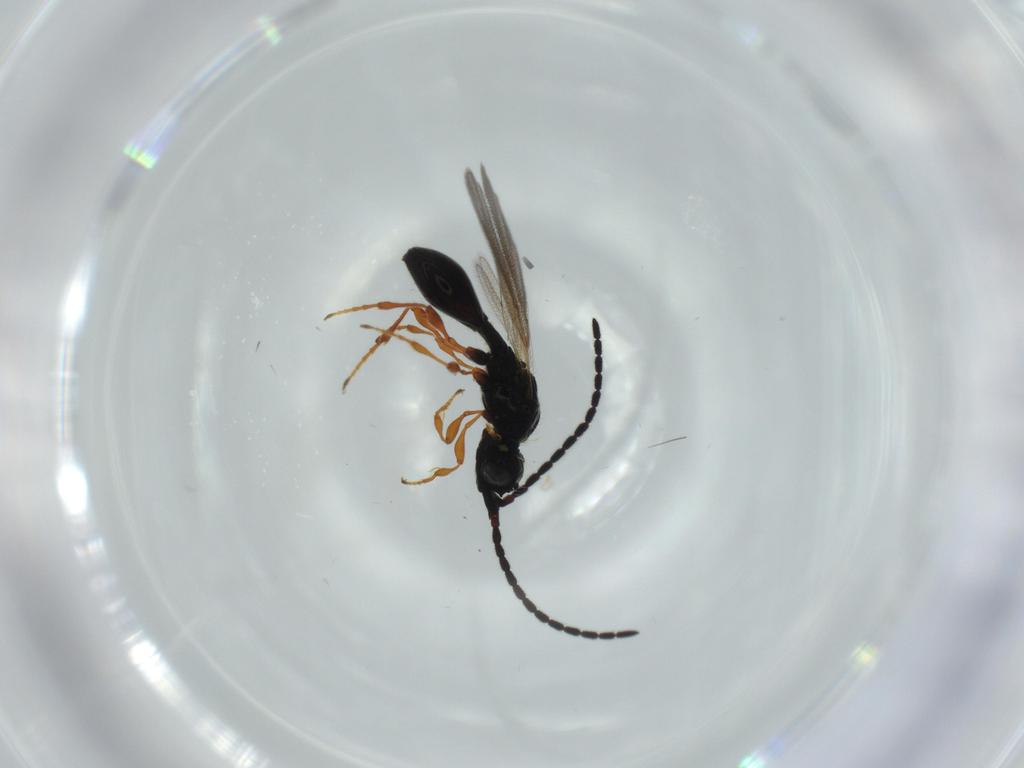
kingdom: Animalia
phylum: Arthropoda
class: Insecta
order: Hymenoptera
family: Diapriidae
